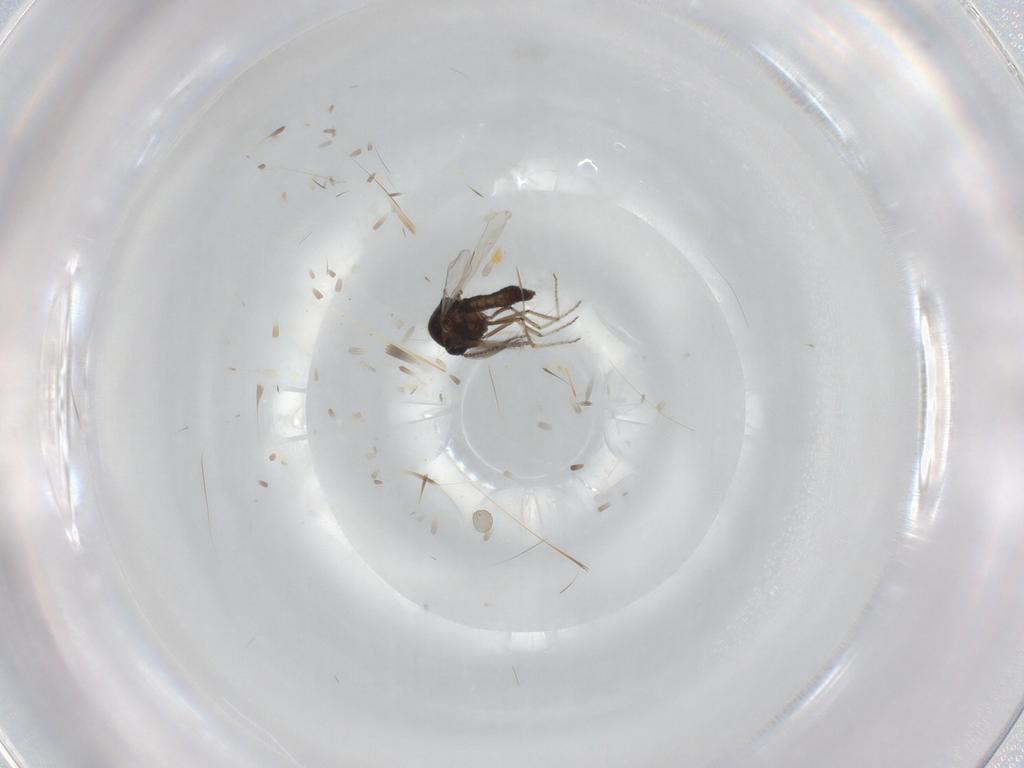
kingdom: Animalia
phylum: Arthropoda
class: Insecta
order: Diptera
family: Ceratopogonidae
